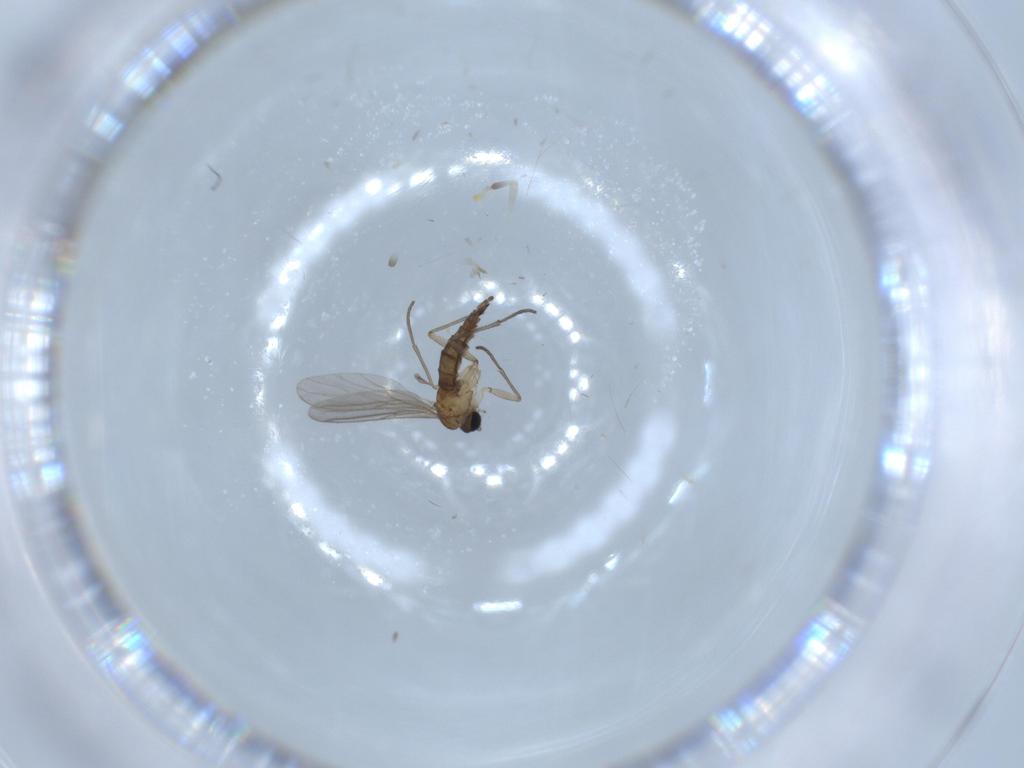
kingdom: Animalia
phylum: Arthropoda
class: Insecta
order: Diptera
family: Sciaridae
